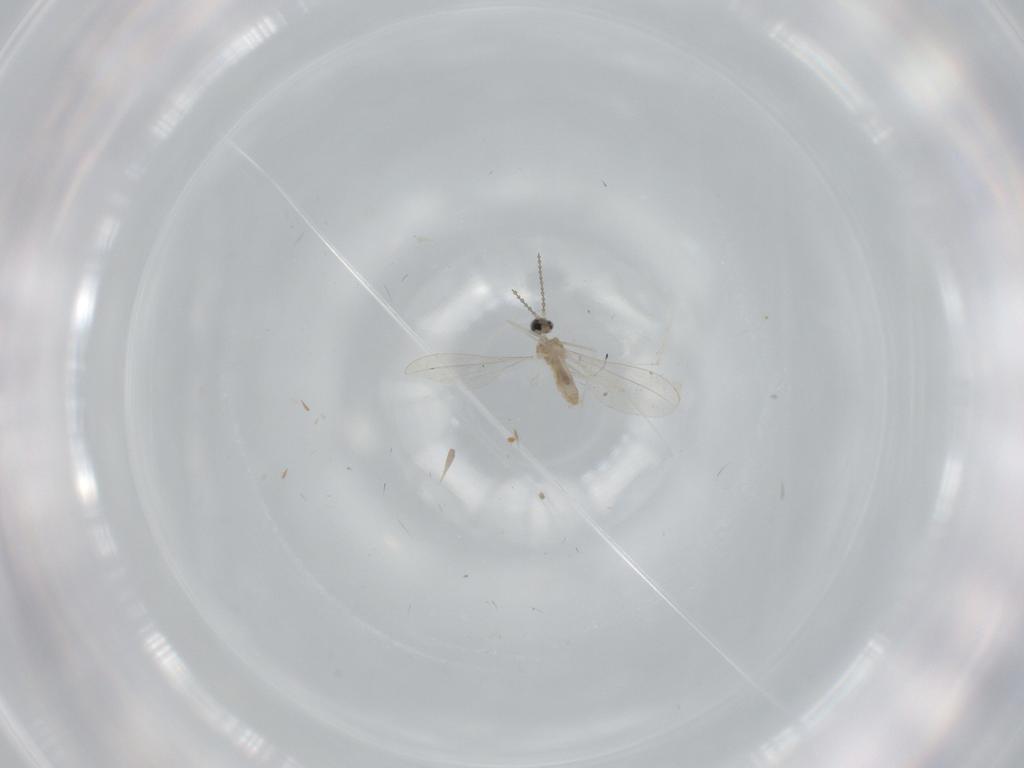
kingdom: Animalia
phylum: Arthropoda
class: Insecta
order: Diptera
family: Cecidomyiidae
